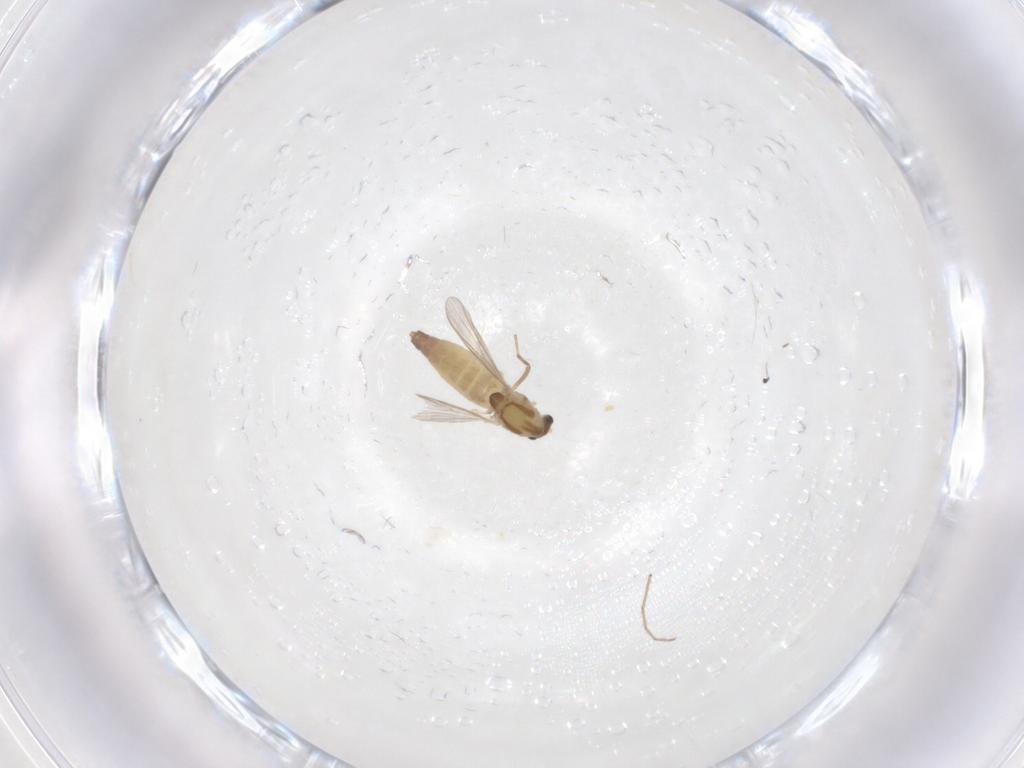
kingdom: Animalia
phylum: Arthropoda
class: Insecta
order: Diptera
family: Chironomidae
